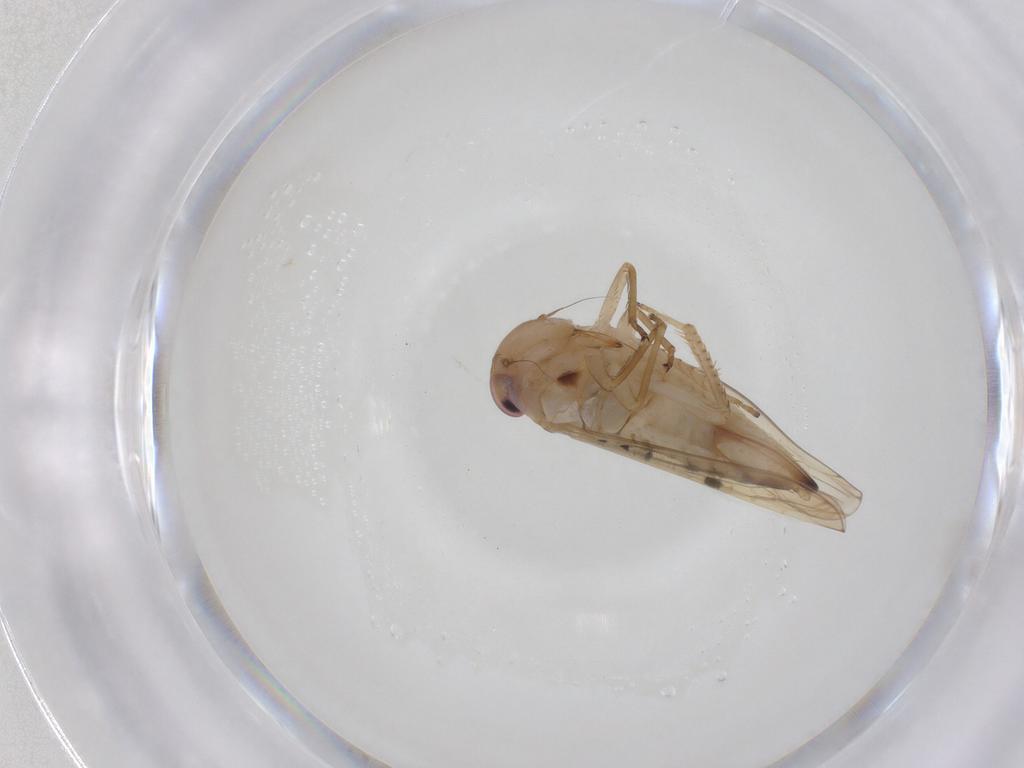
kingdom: Animalia
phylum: Arthropoda
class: Insecta
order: Hemiptera
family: Cicadellidae
